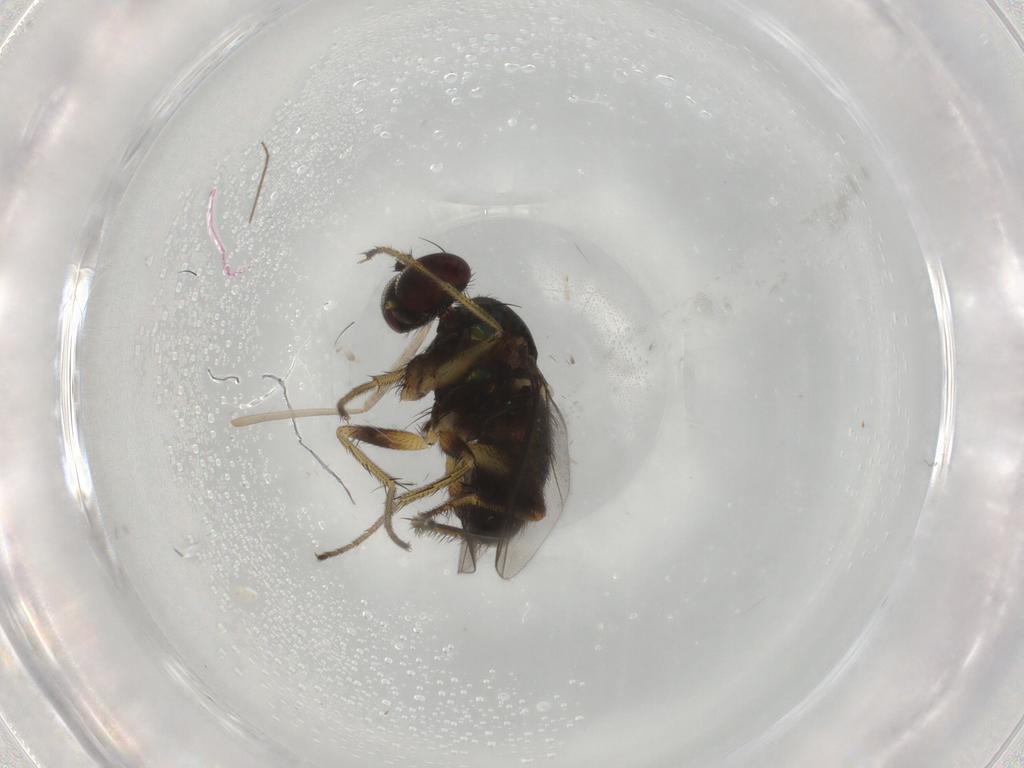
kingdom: Animalia
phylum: Arthropoda
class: Insecta
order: Diptera
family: Dolichopodidae
